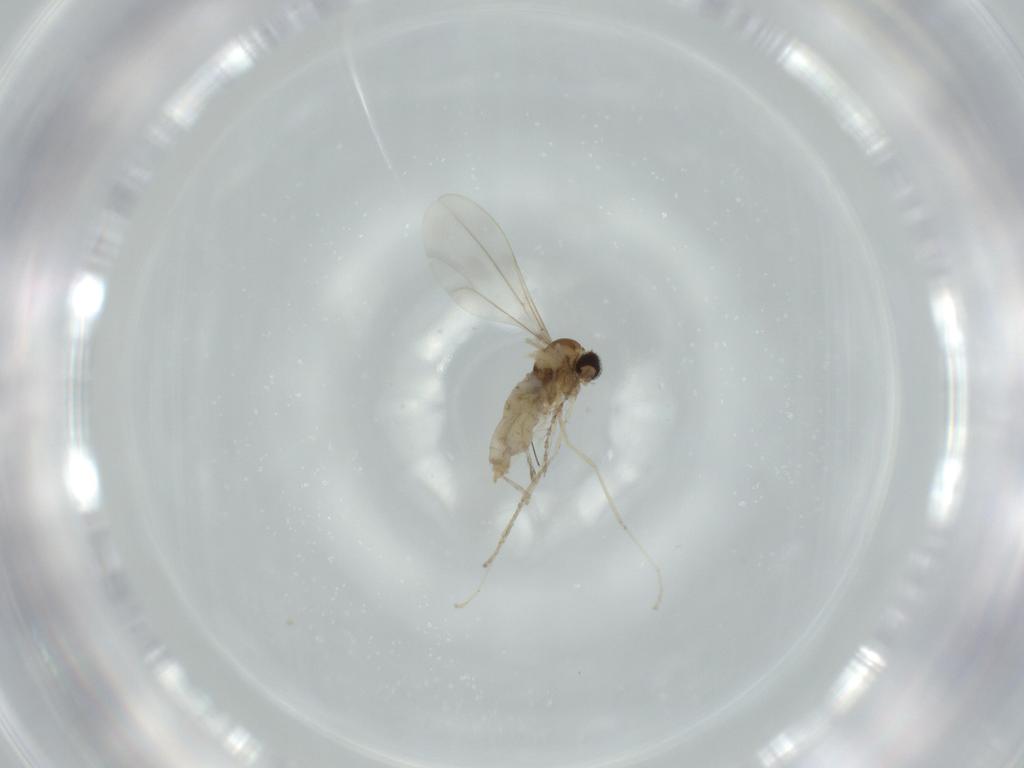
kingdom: Animalia
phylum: Arthropoda
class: Insecta
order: Diptera
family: Cecidomyiidae
